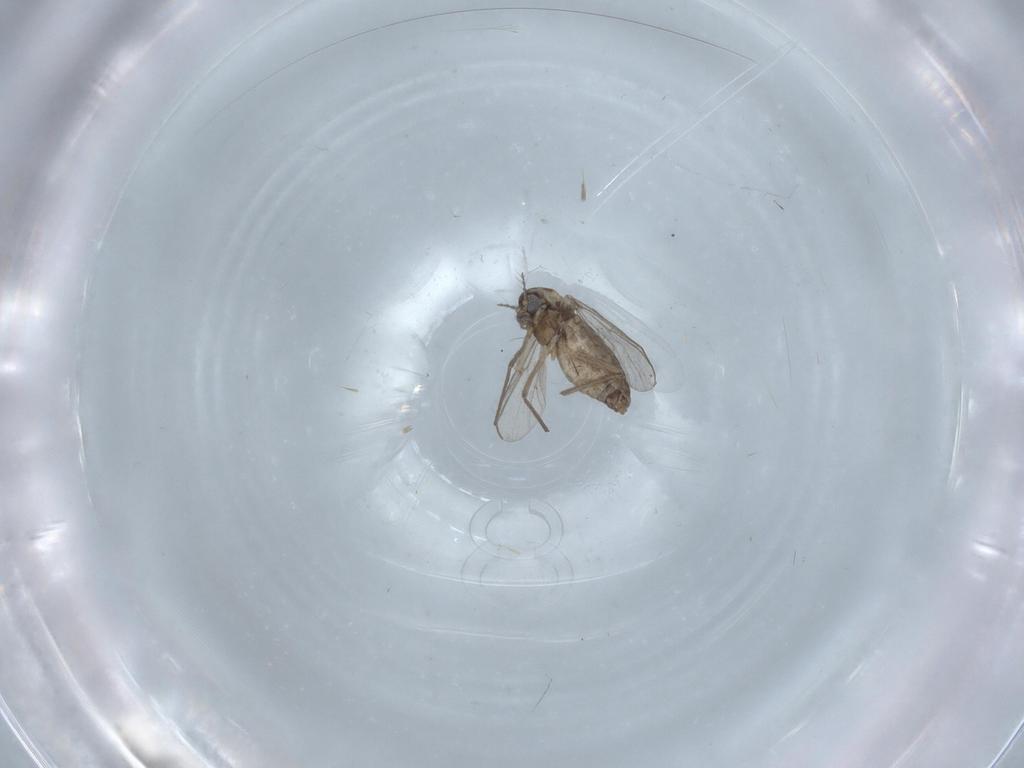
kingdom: Animalia
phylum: Arthropoda
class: Insecta
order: Diptera
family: Chironomidae
